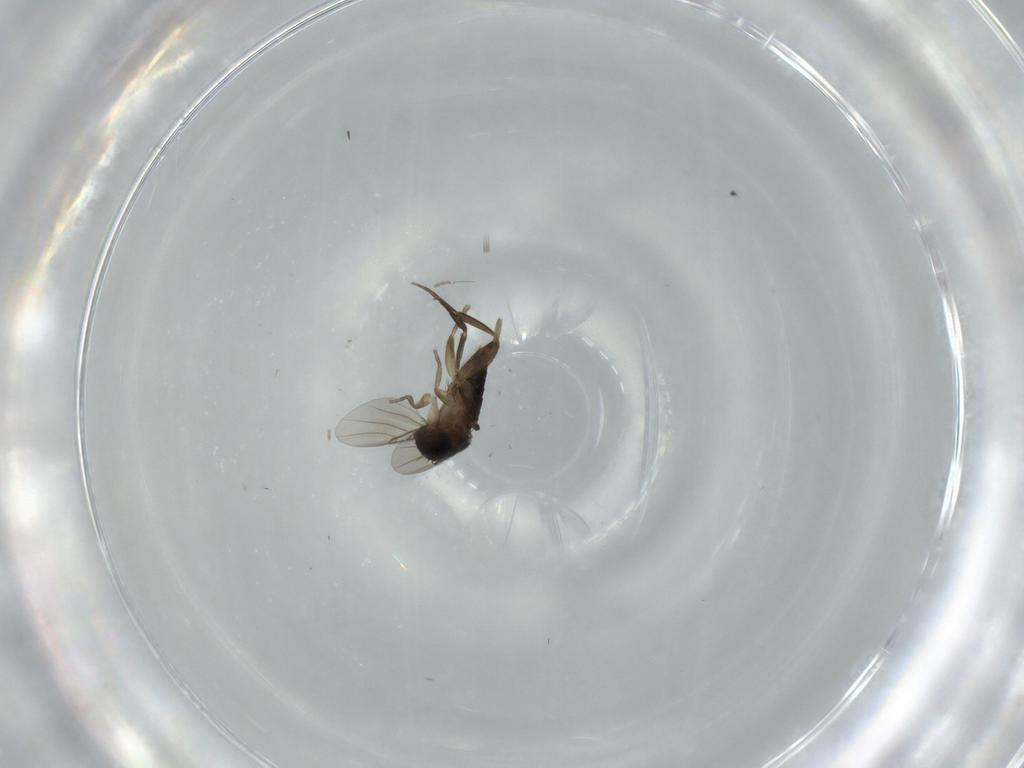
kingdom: Animalia
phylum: Arthropoda
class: Insecta
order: Diptera
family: Phoridae
